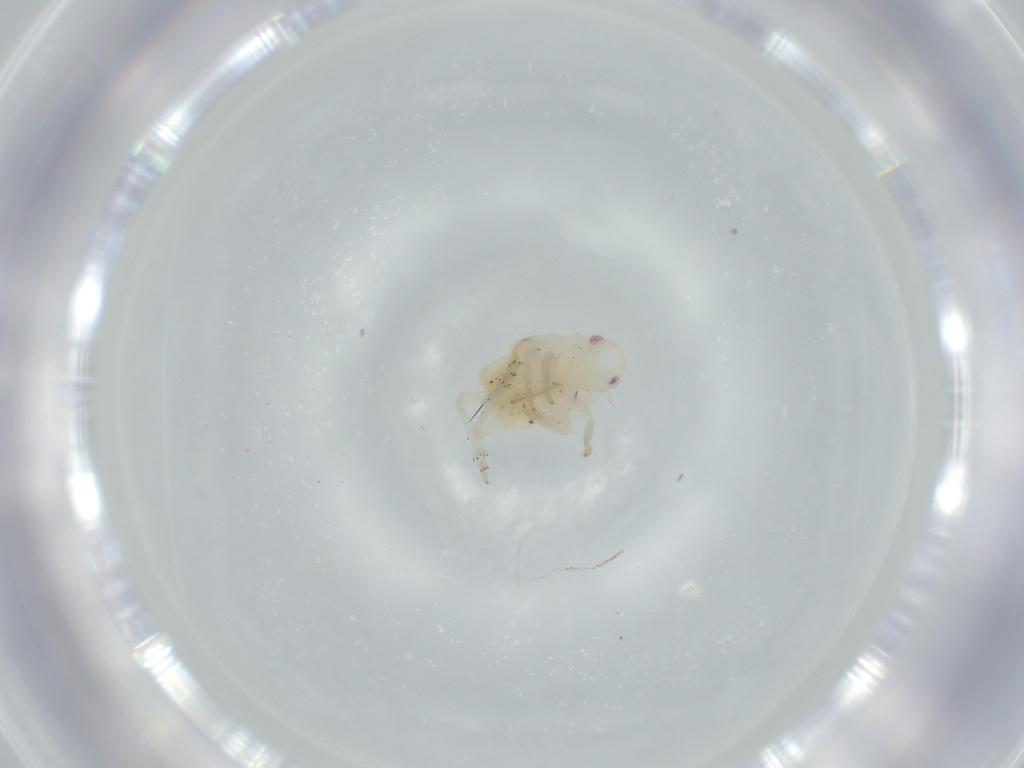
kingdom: Animalia
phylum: Arthropoda
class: Insecta
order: Hemiptera
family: Flatidae
